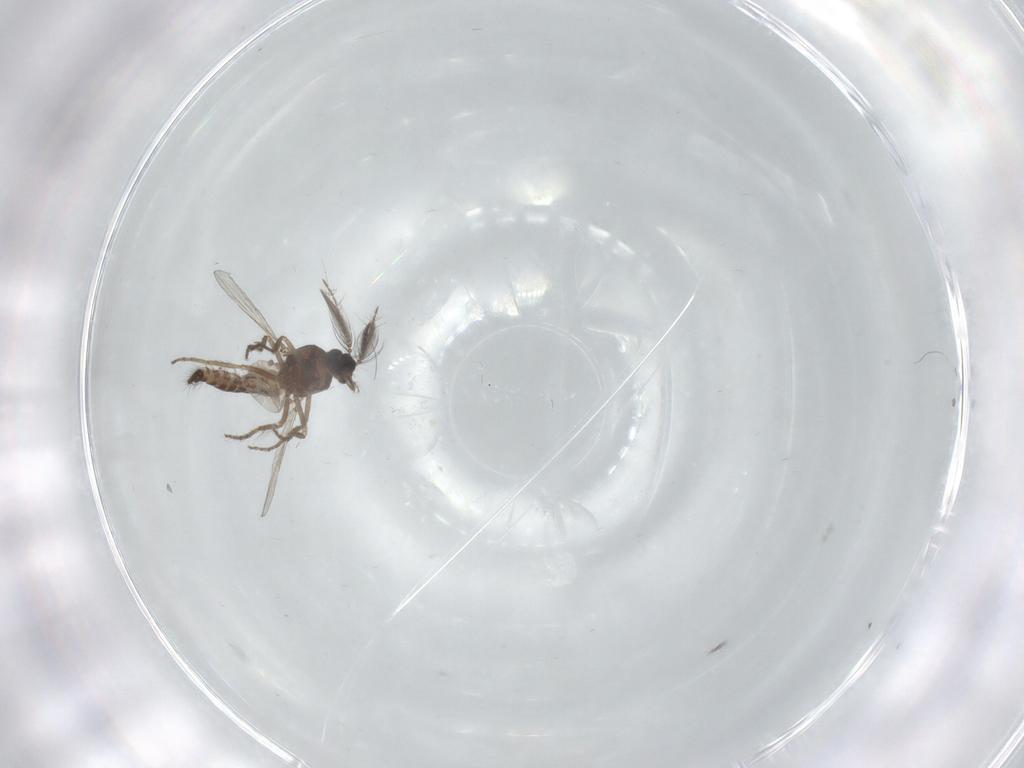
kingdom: Animalia
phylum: Arthropoda
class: Insecta
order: Diptera
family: Ceratopogonidae
